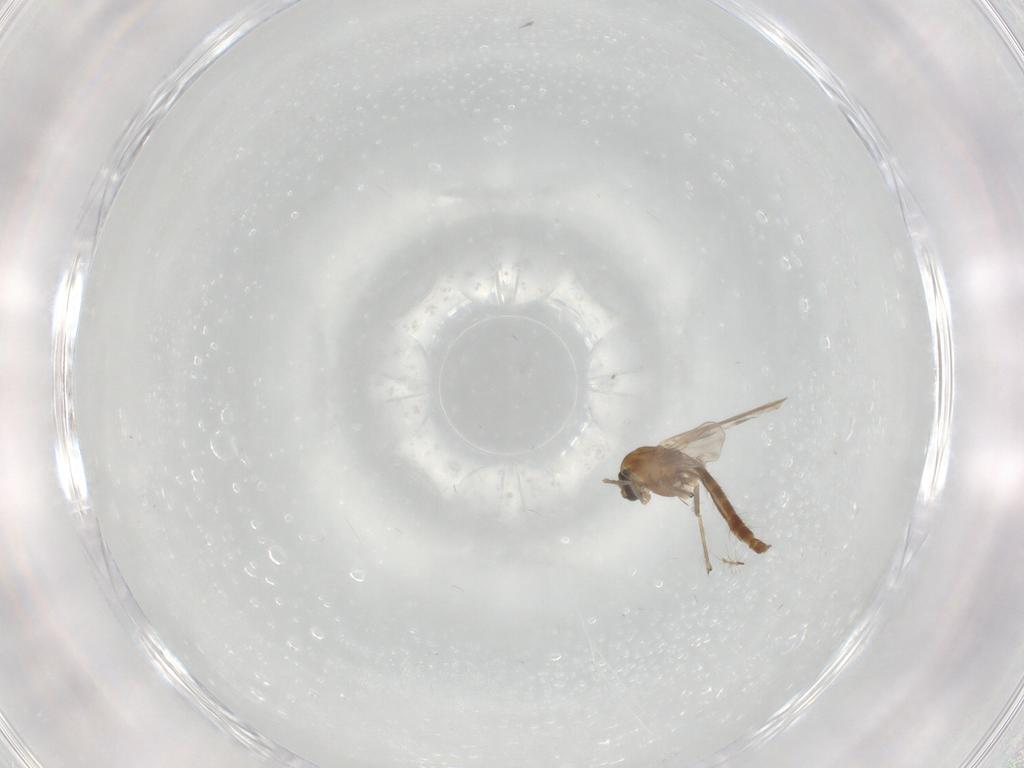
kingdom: Animalia
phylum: Arthropoda
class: Insecta
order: Diptera
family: Chironomidae
